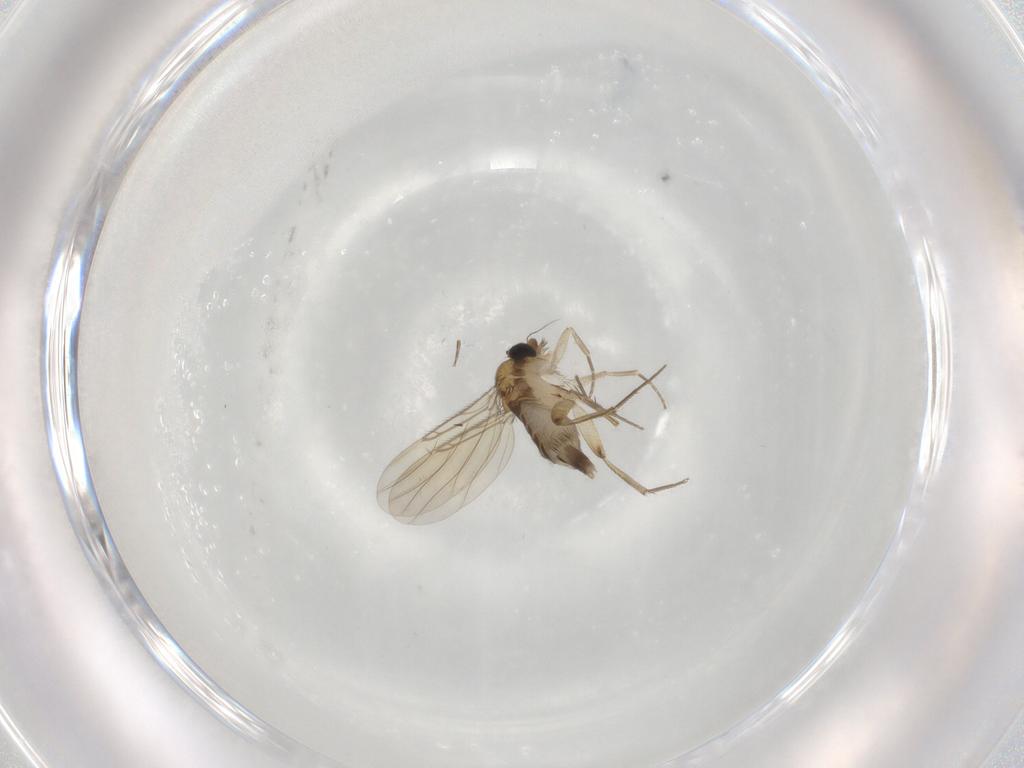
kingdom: Animalia
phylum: Arthropoda
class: Insecta
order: Diptera
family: Phoridae
